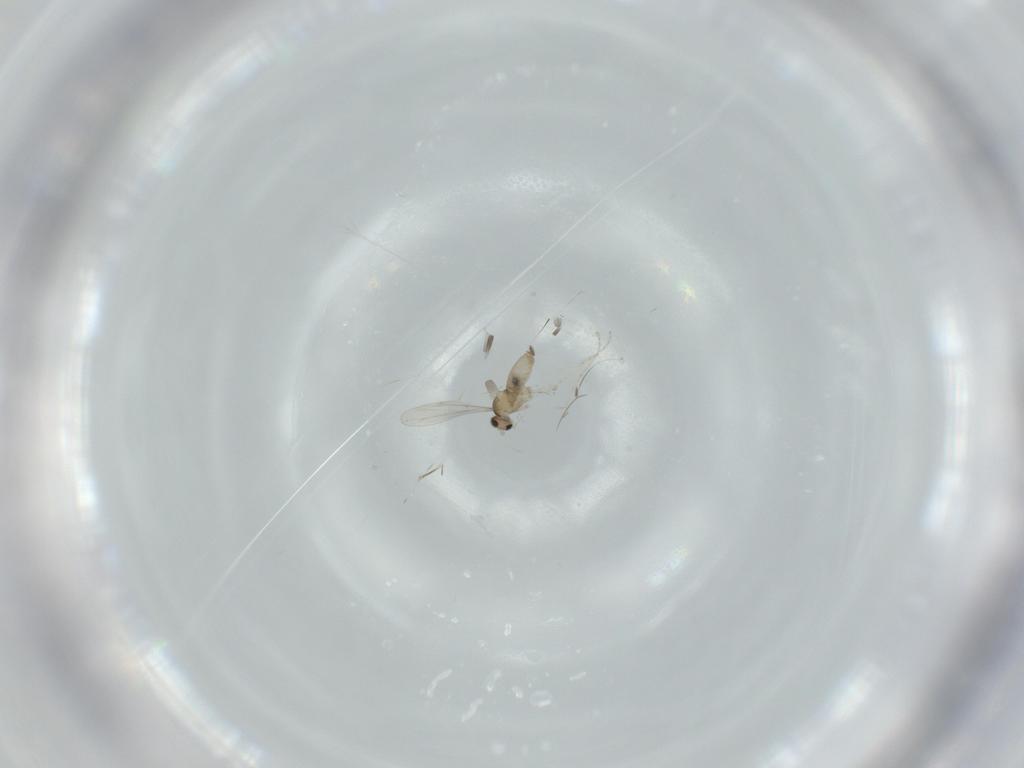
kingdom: Animalia
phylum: Arthropoda
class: Insecta
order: Diptera
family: Cecidomyiidae
